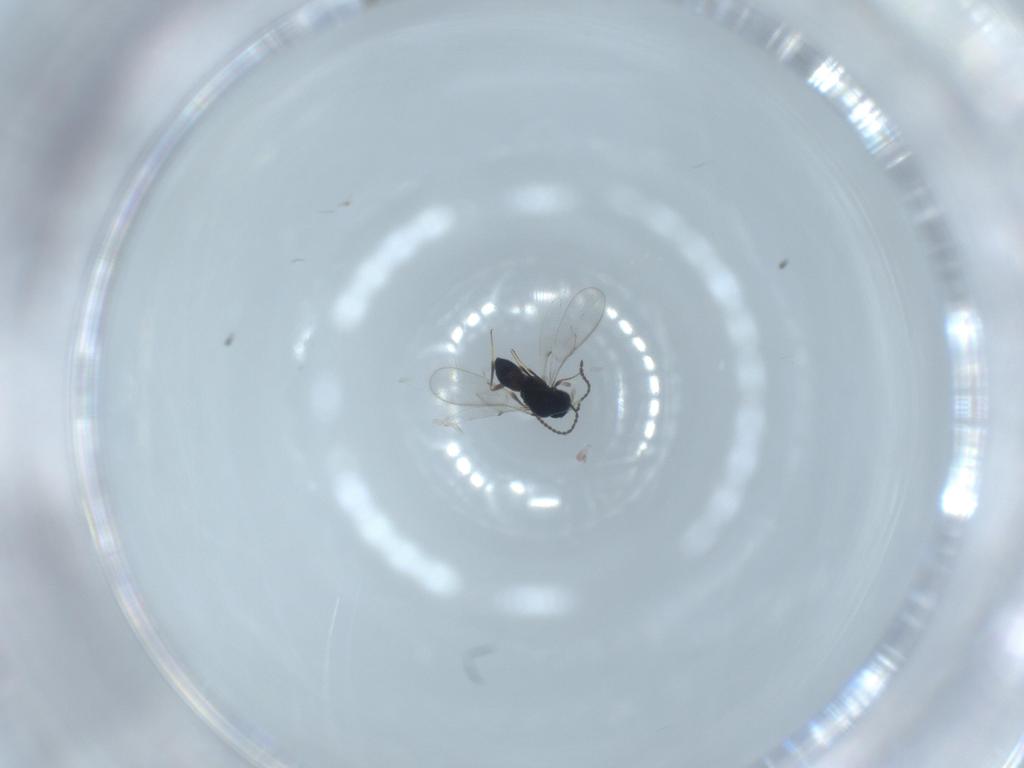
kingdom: Animalia
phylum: Arthropoda
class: Insecta
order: Hymenoptera
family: Scelionidae
